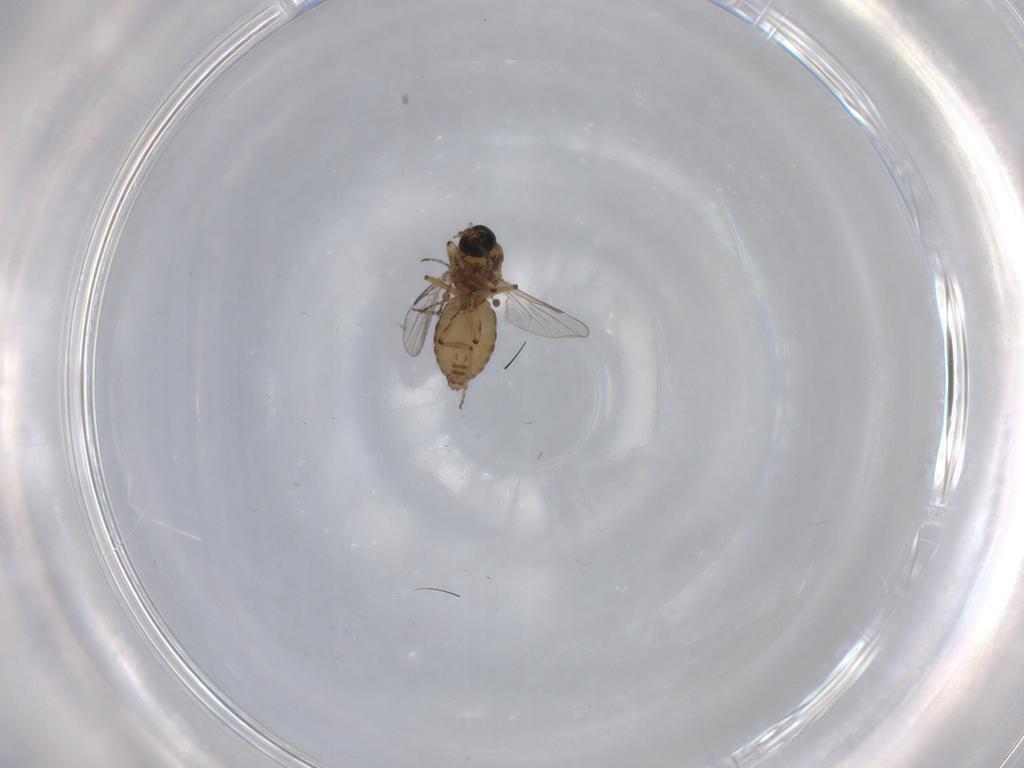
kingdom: Animalia
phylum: Arthropoda
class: Insecta
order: Diptera
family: Ceratopogonidae
